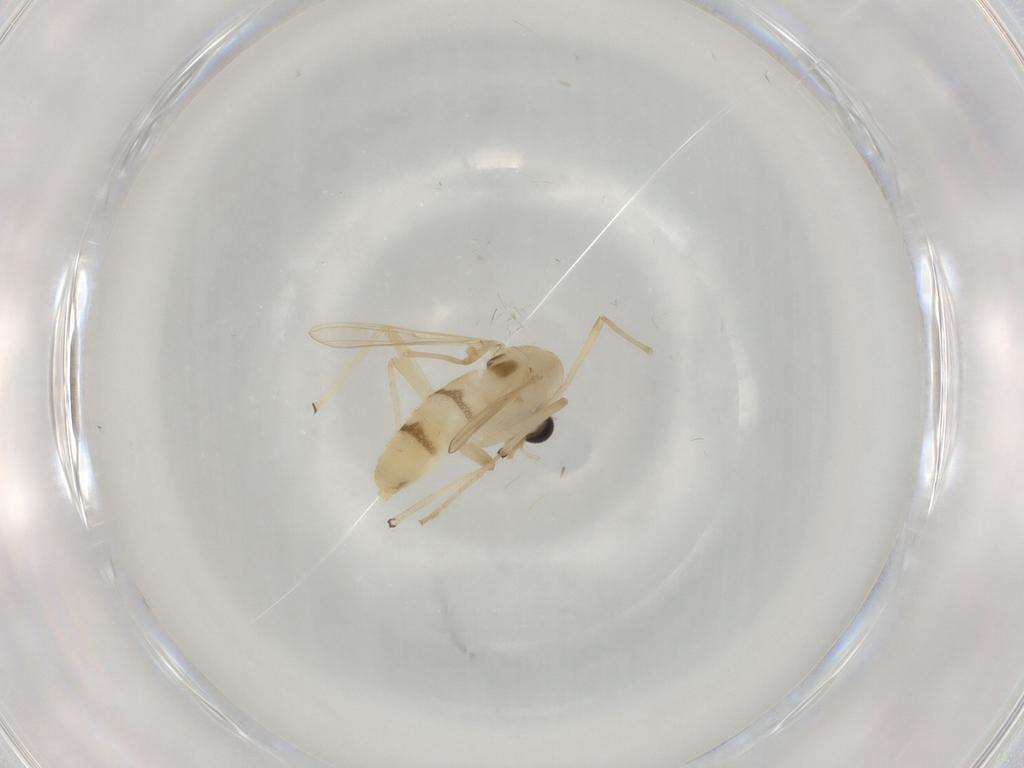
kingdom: Animalia
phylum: Arthropoda
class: Insecta
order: Diptera
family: Chironomidae
